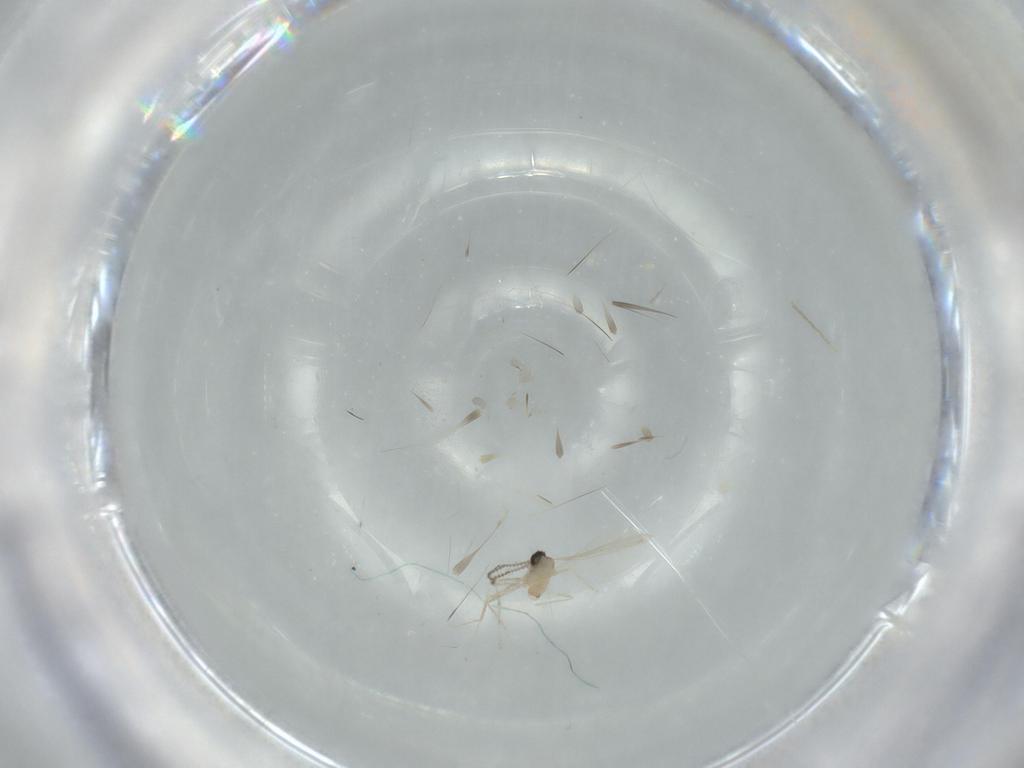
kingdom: Animalia
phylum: Arthropoda
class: Insecta
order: Diptera
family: Cecidomyiidae
